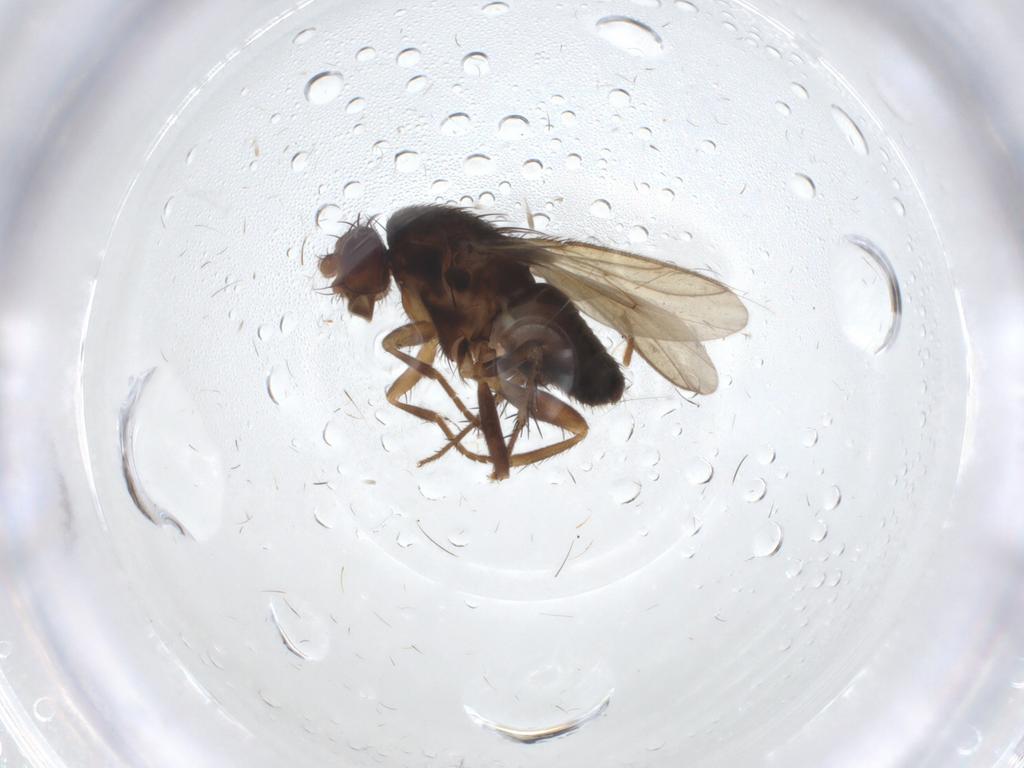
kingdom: Animalia
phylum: Arthropoda
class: Insecta
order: Diptera
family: Sphaeroceridae
